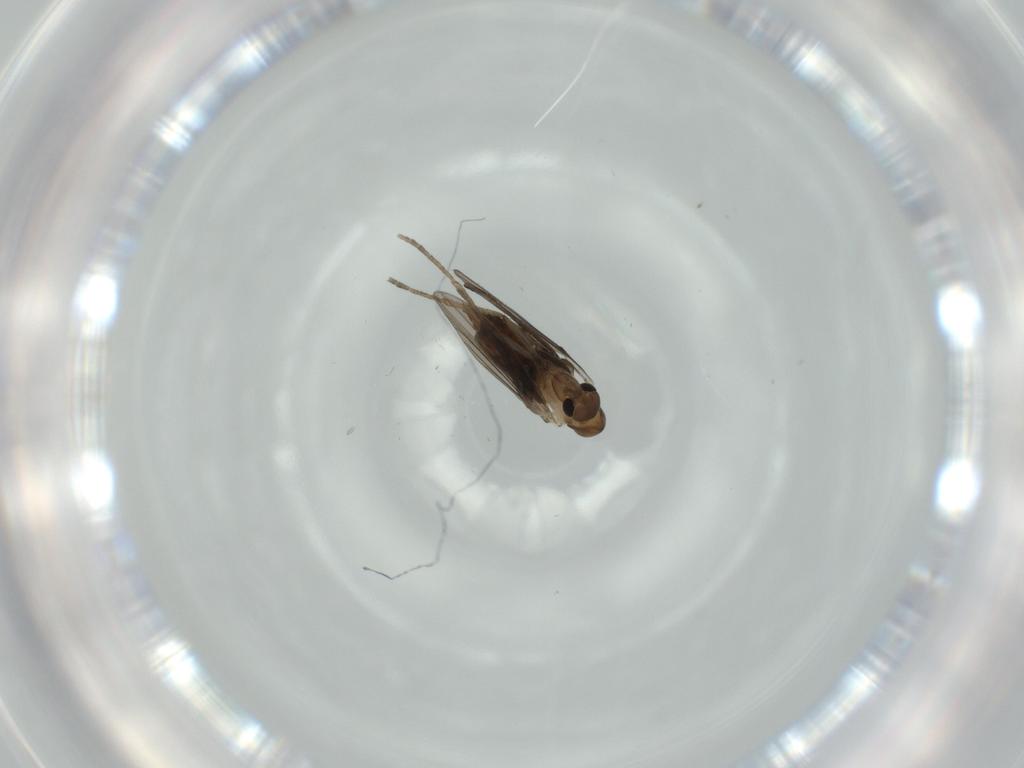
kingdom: Animalia
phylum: Arthropoda
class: Insecta
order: Diptera
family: Psychodidae
